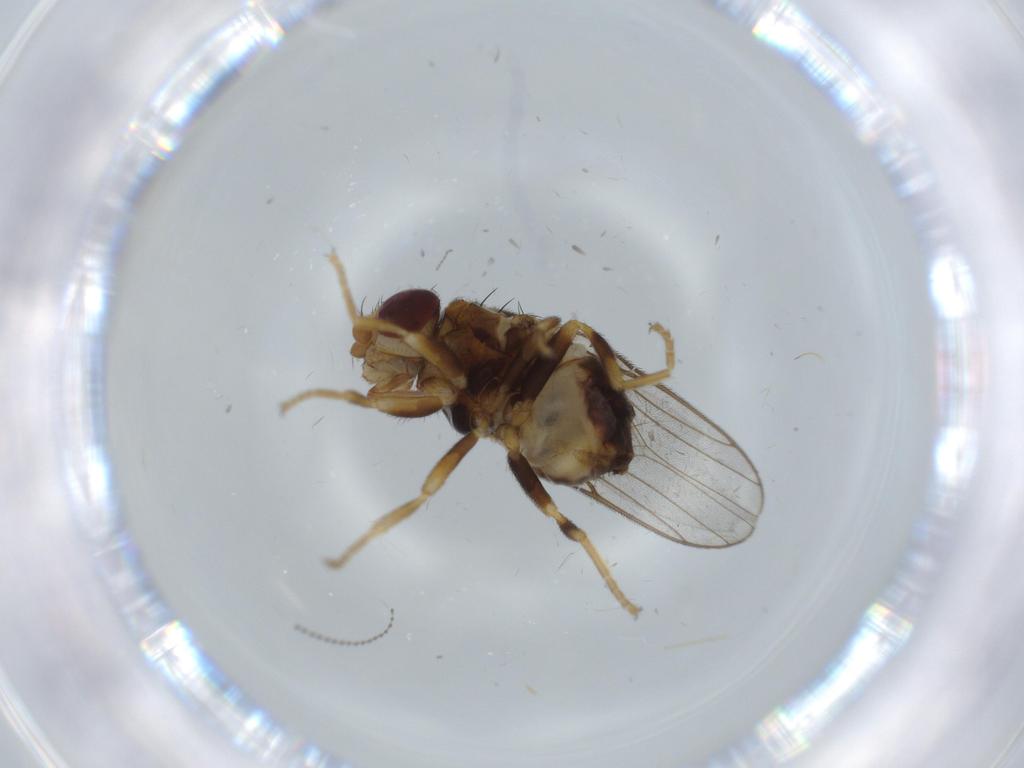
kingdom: Animalia
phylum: Arthropoda
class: Insecta
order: Diptera
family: Chloropidae
